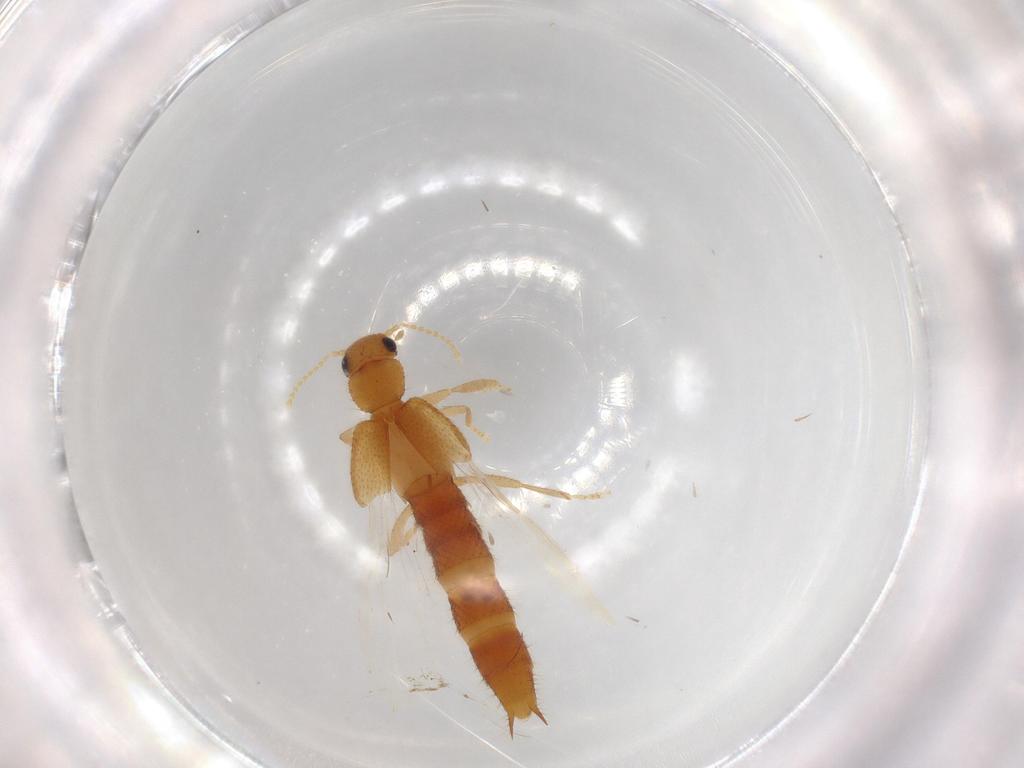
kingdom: Animalia
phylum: Arthropoda
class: Insecta
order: Coleoptera
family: Staphylinidae
